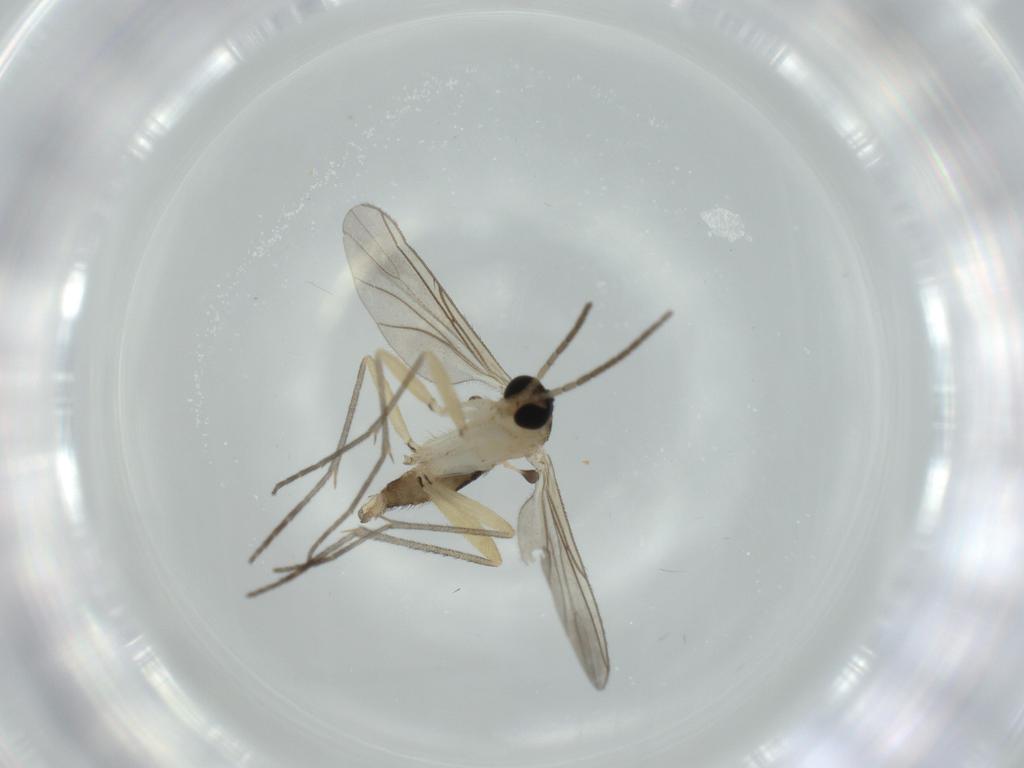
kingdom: Animalia
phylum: Arthropoda
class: Insecta
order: Diptera
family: Sciaridae
